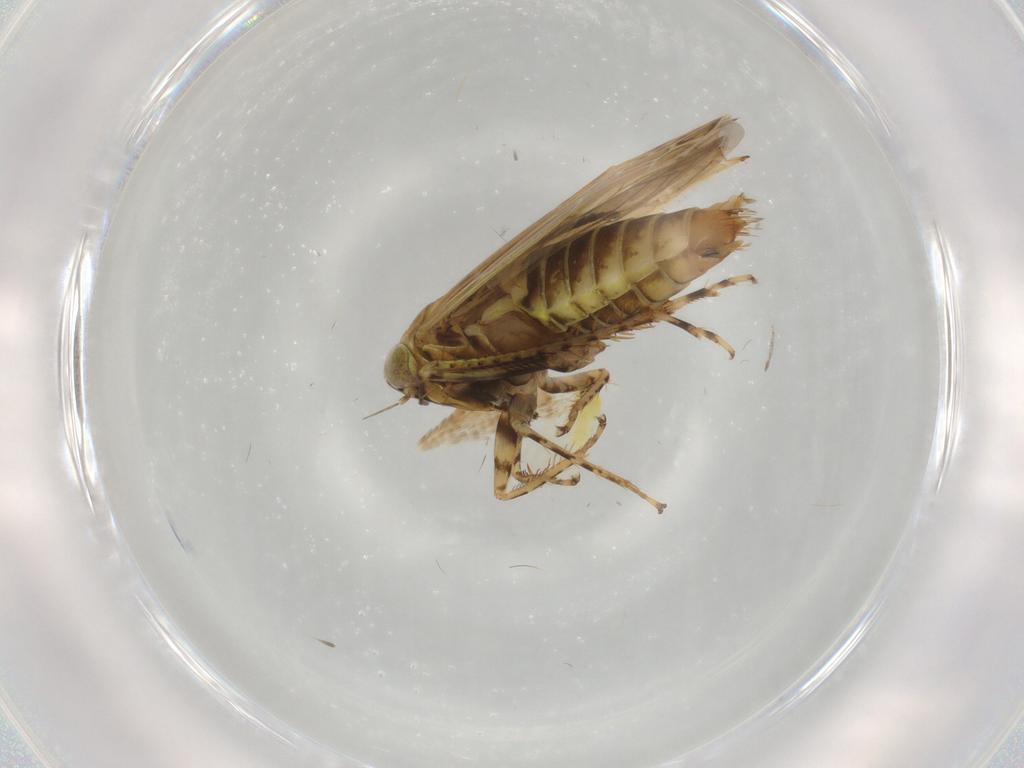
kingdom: Animalia
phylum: Arthropoda
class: Insecta
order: Hemiptera
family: Cicadellidae
